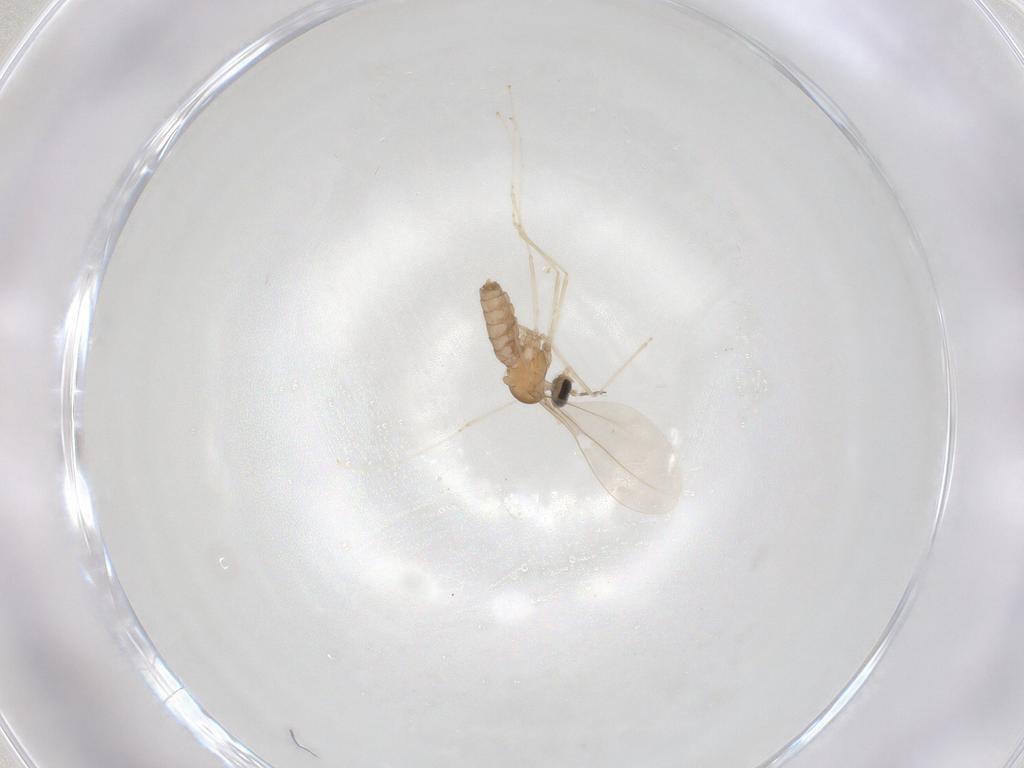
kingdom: Animalia
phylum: Arthropoda
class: Insecta
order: Diptera
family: Cecidomyiidae
